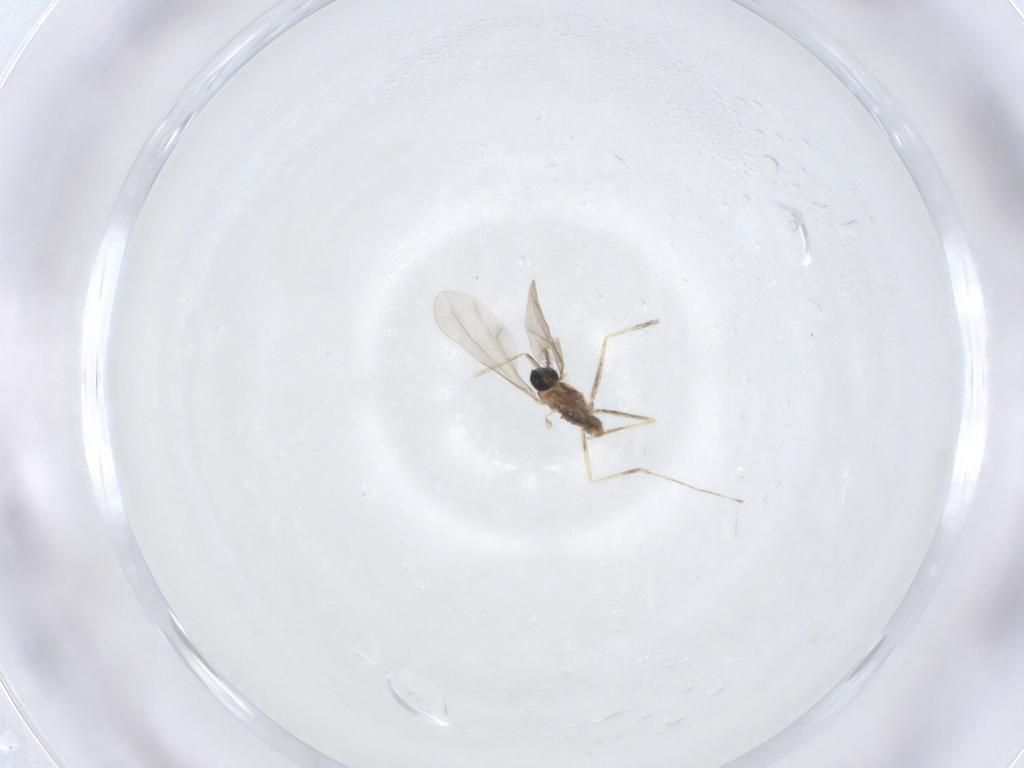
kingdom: Animalia
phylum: Arthropoda
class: Insecta
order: Diptera
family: Cecidomyiidae
